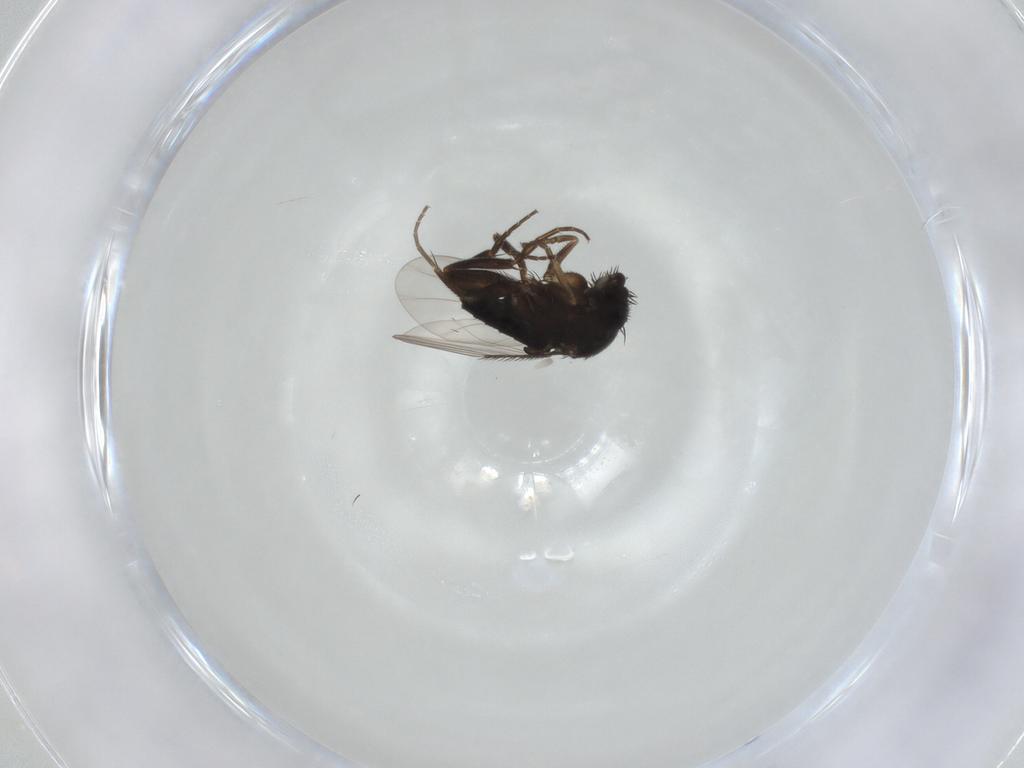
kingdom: Animalia
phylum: Arthropoda
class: Insecta
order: Diptera
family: Phoridae
